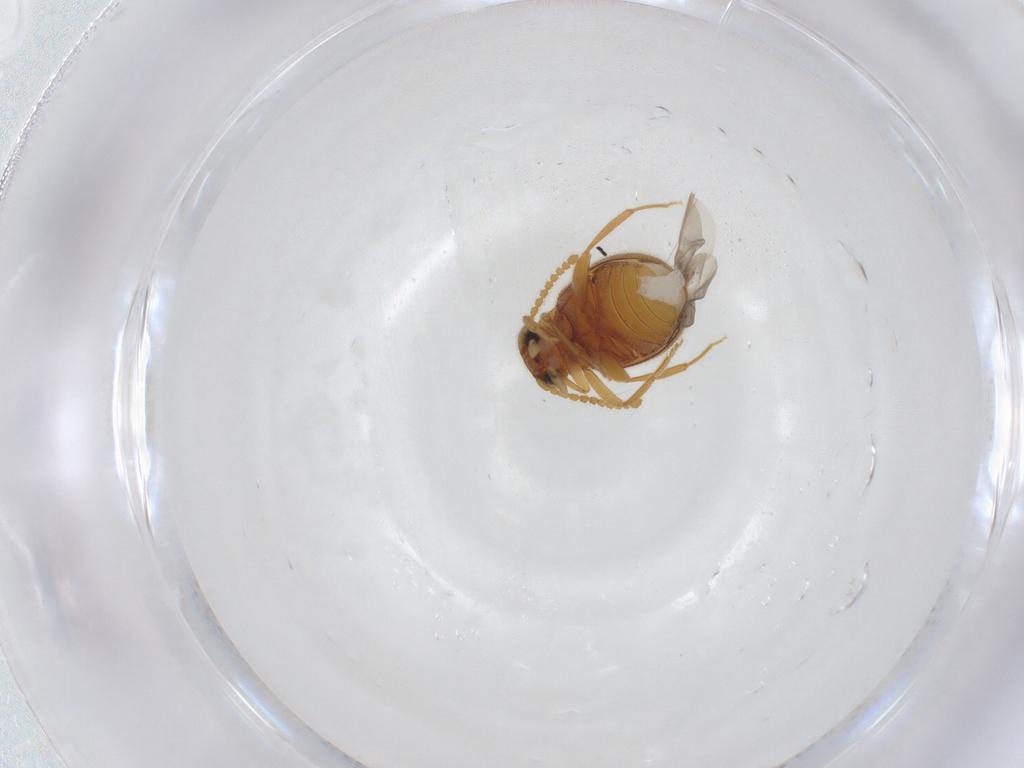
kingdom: Animalia
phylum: Arthropoda
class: Insecta
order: Coleoptera
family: Aderidae
